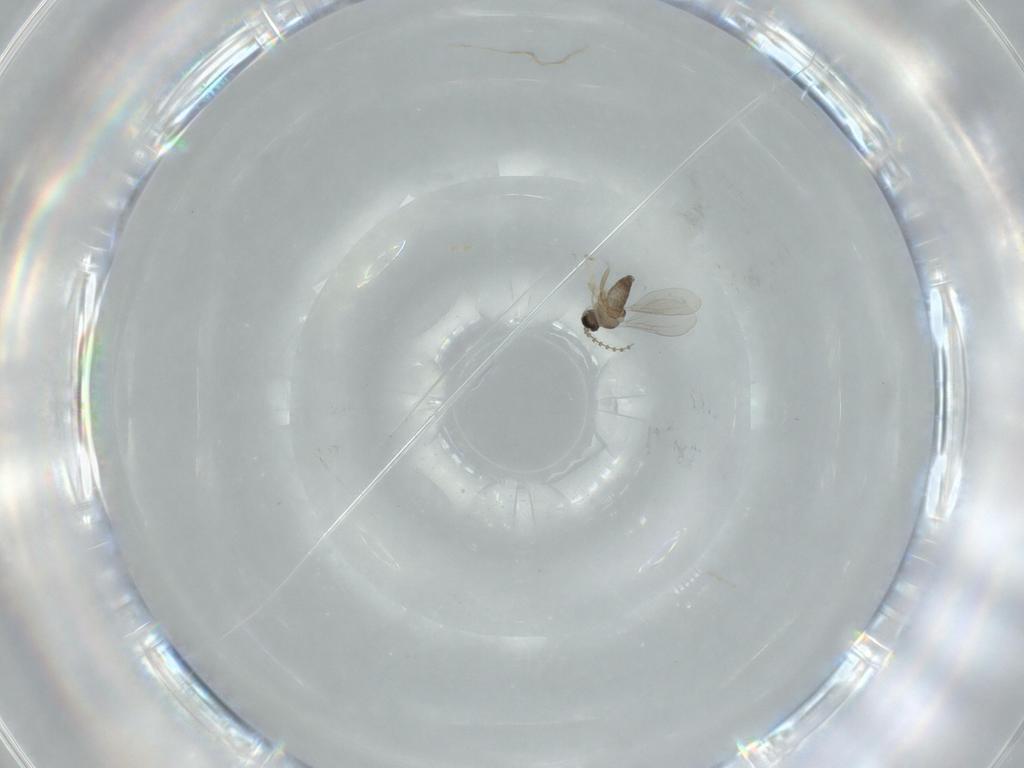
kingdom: Animalia
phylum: Arthropoda
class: Insecta
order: Diptera
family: Cecidomyiidae
